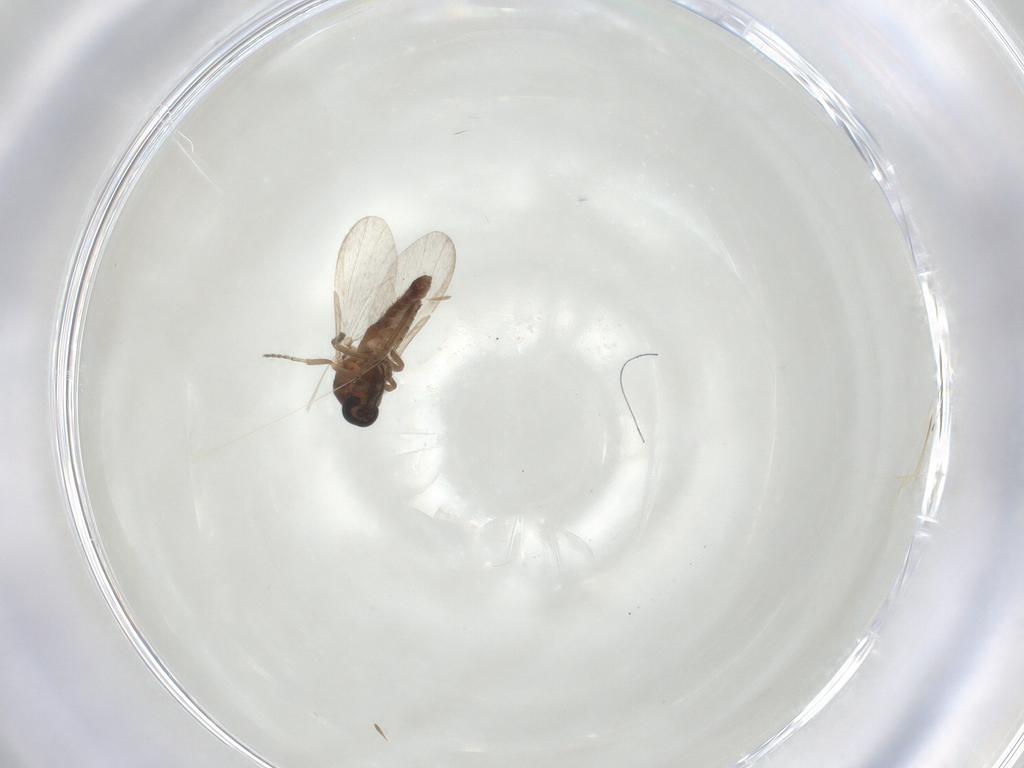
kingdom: Animalia
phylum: Arthropoda
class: Insecta
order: Diptera
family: Ceratopogonidae
